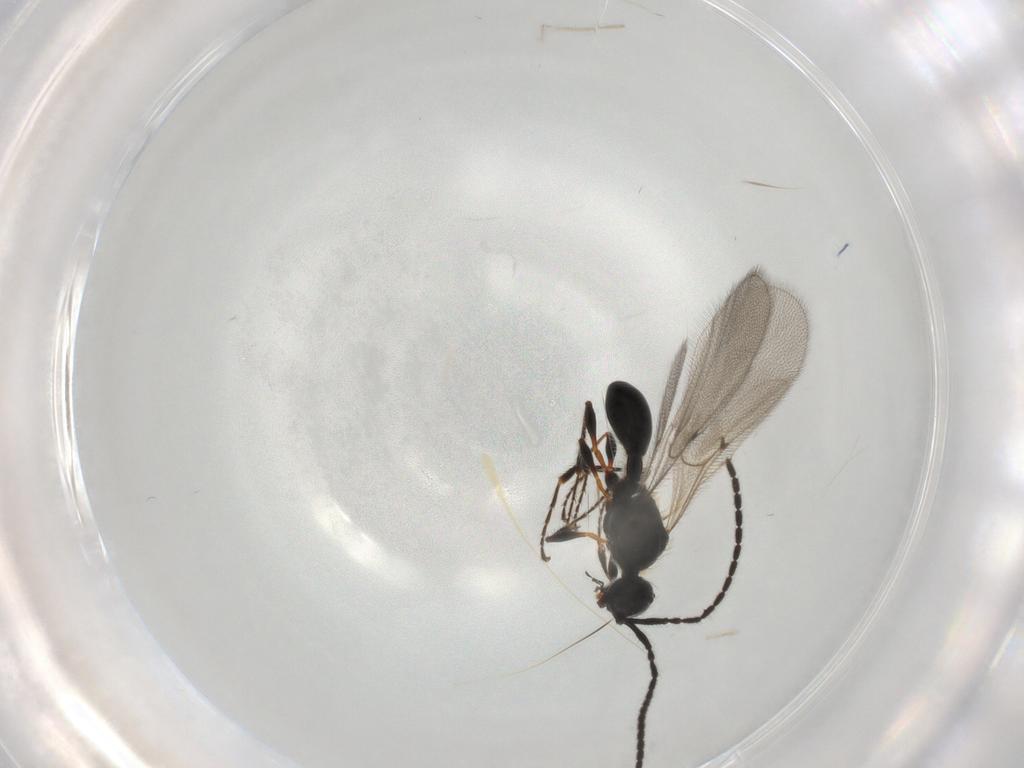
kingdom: Animalia
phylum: Arthropoda
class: Insecta
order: Hymenoptera
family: Diapriidae
